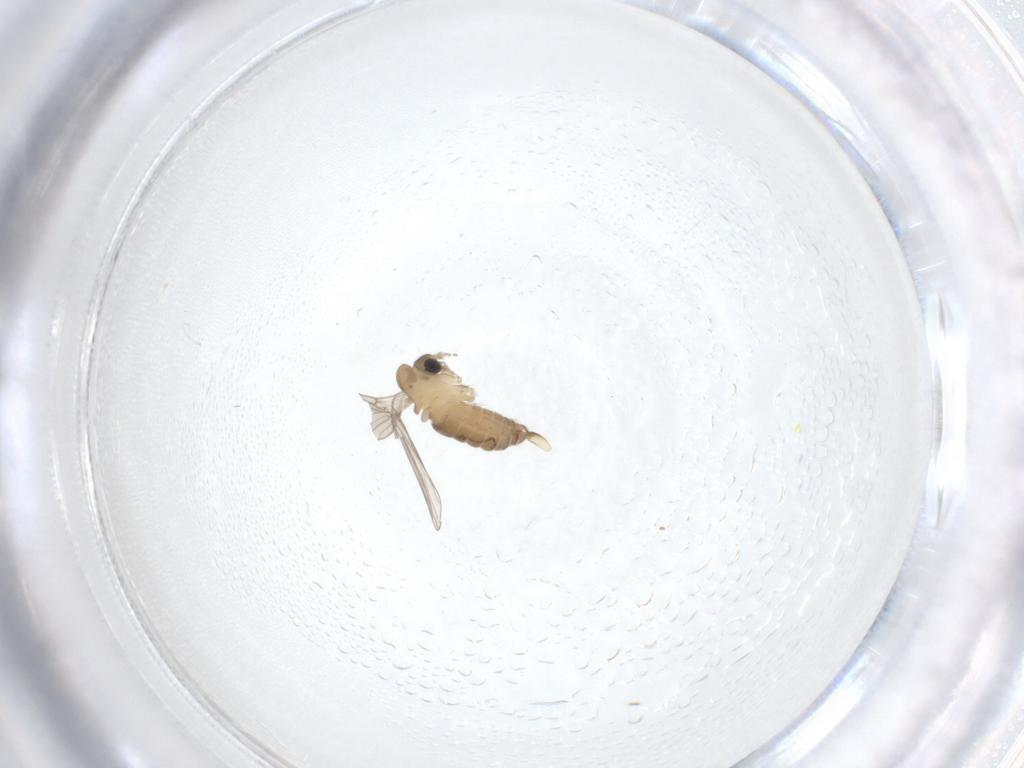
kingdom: Animalia
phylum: Arthropoda
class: Insecta
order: Diptera
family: Psychodidae
